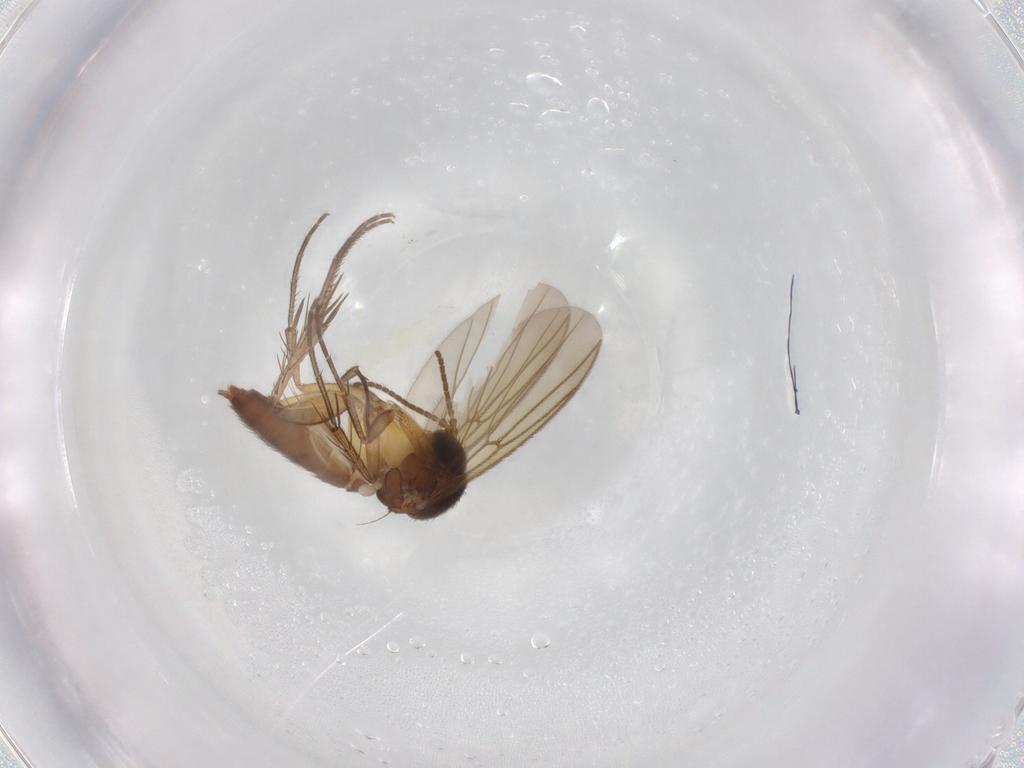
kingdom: Animalia
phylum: Arthropoda
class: Insecta
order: Diptera
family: Mycetophilidae
